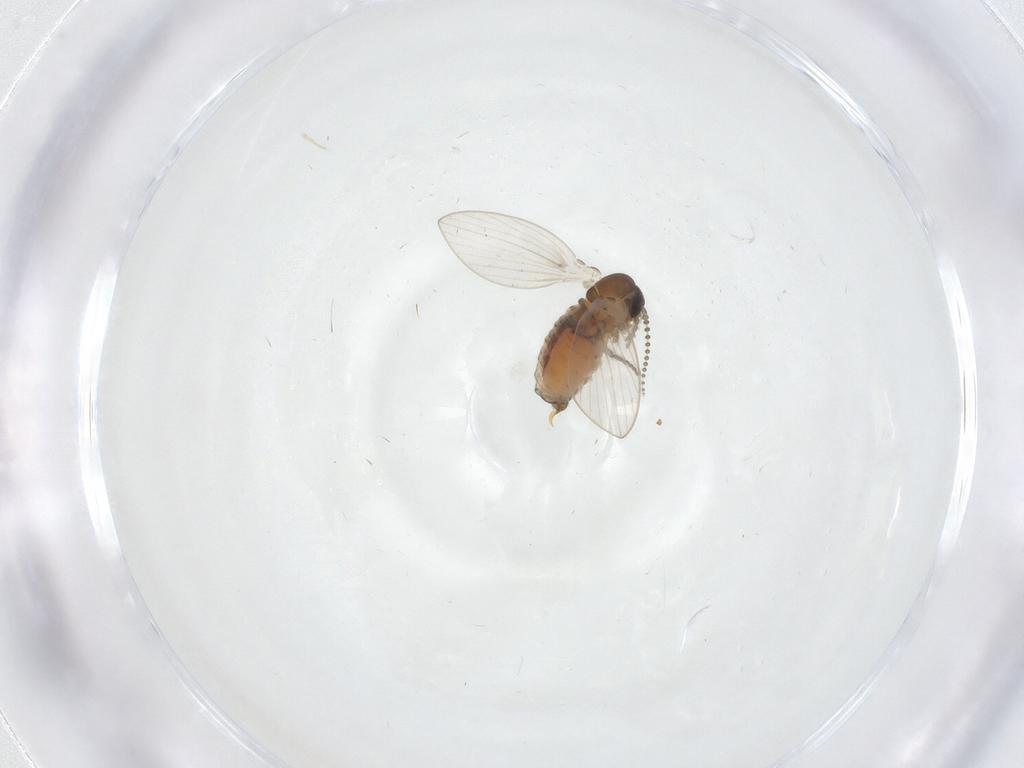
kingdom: Animalia
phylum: Arthropoda
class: Insecta
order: Diptera
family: Psychodidae
